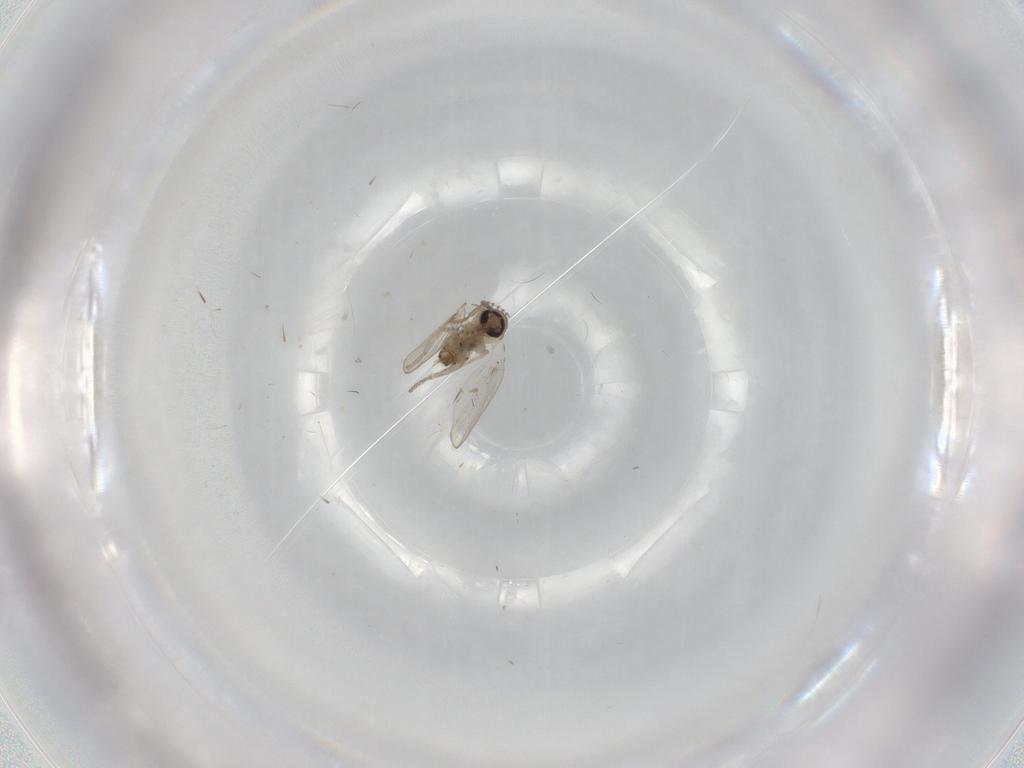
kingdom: Animalia
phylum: Arthropoda
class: Insecta
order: Diptera
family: Psychodidae
